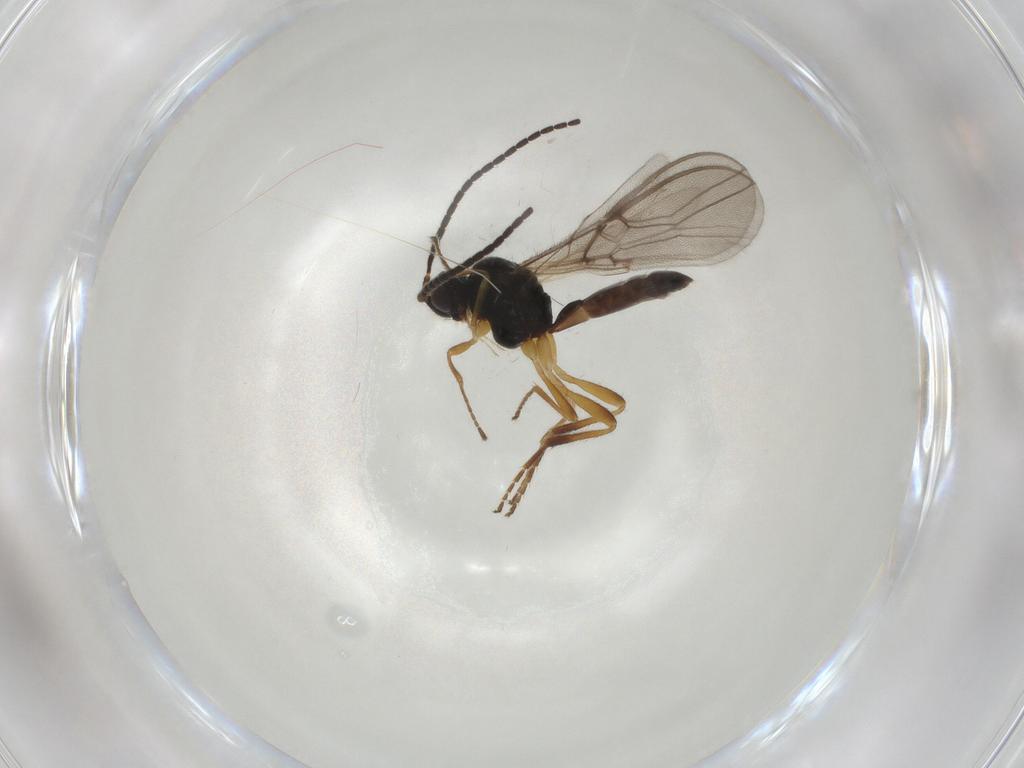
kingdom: Animalia
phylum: Arthropoda
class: Insecta
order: Hymenoptera
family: Braconidae
